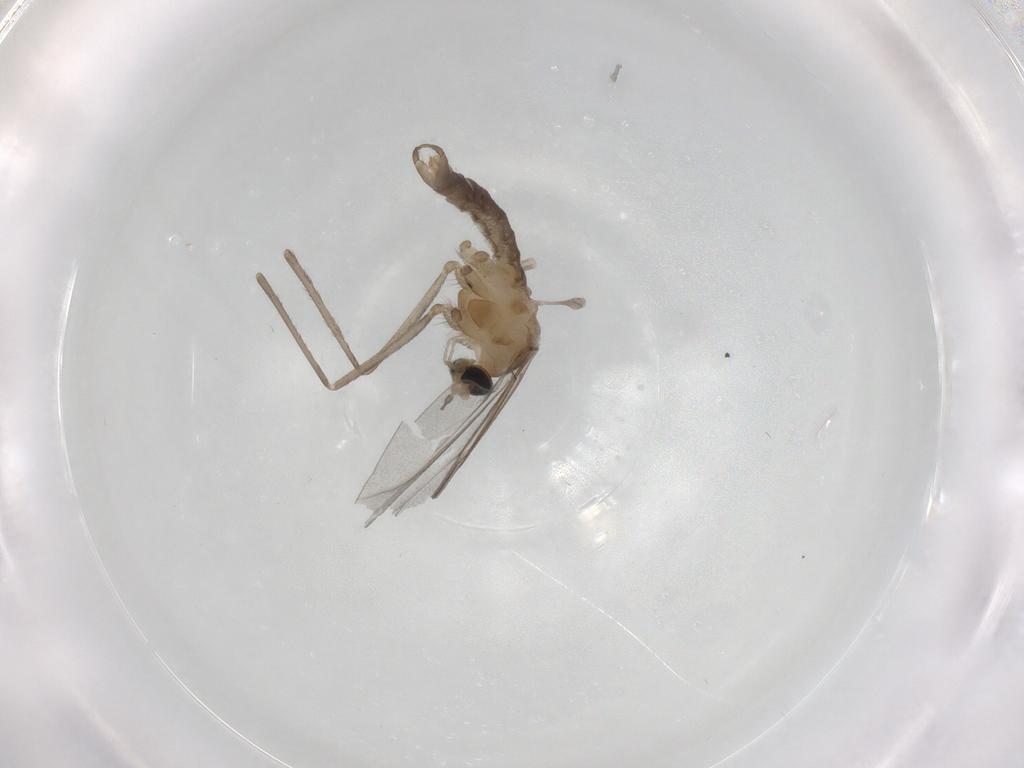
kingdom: Animalia
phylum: Arthropoda
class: Insecta
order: Diptera
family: Cecidomyiidae
